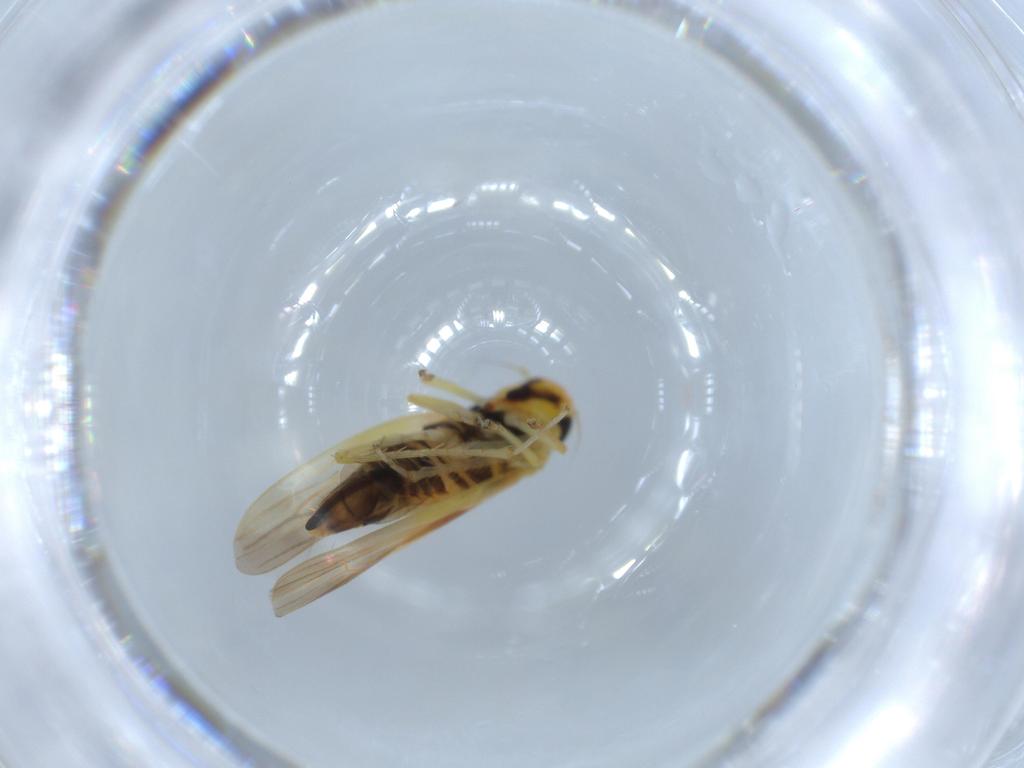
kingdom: Animalia
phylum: Arthropoda
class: Insecta
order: Hemiptera
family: Cicadellidae
